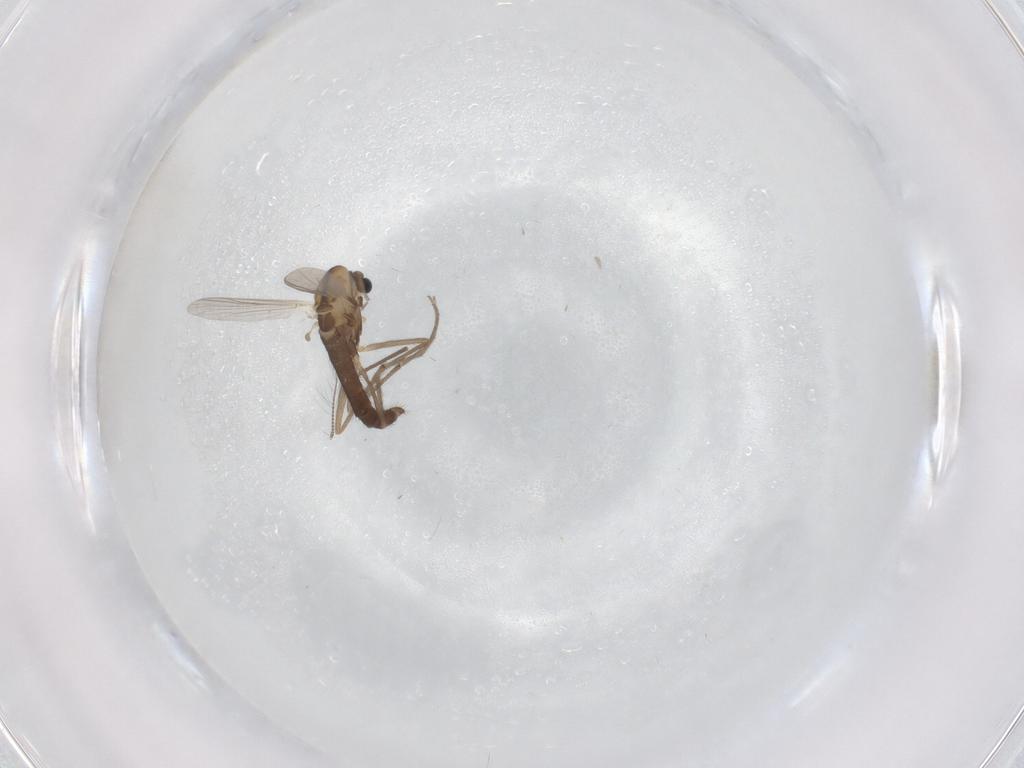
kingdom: Animalia
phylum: Arthropoda
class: Insecta
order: Diptera
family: Chironomidae
